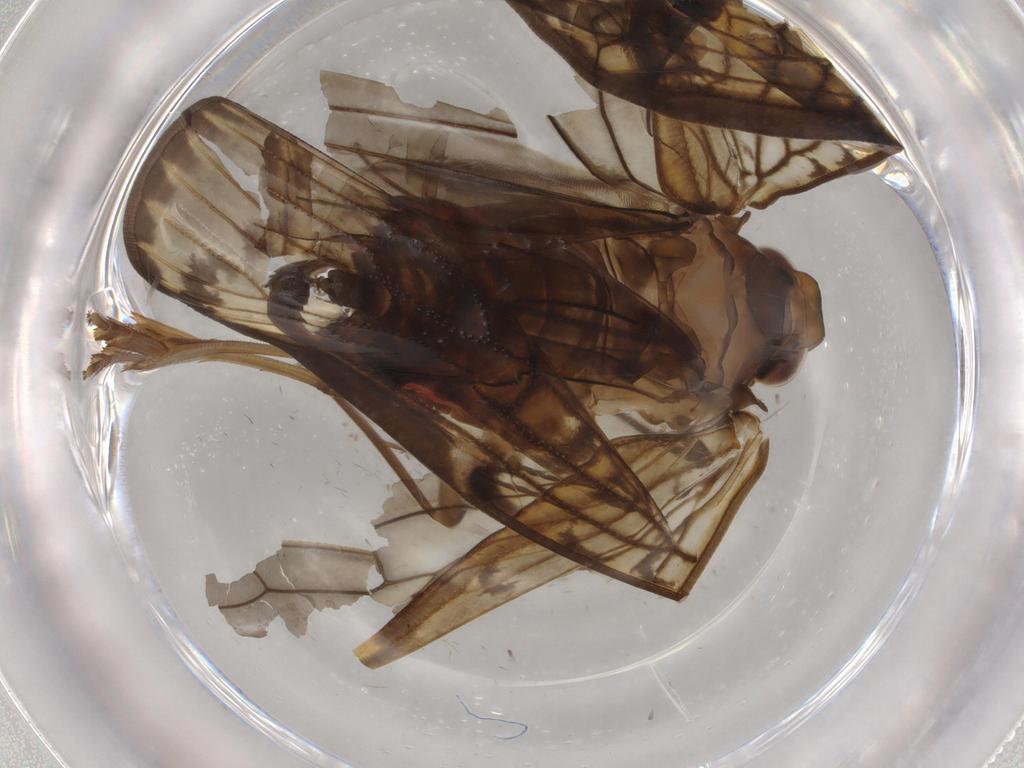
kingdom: Animalia
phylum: Arthropoda
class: Insecta
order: Hemiptera
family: Cixiidae
